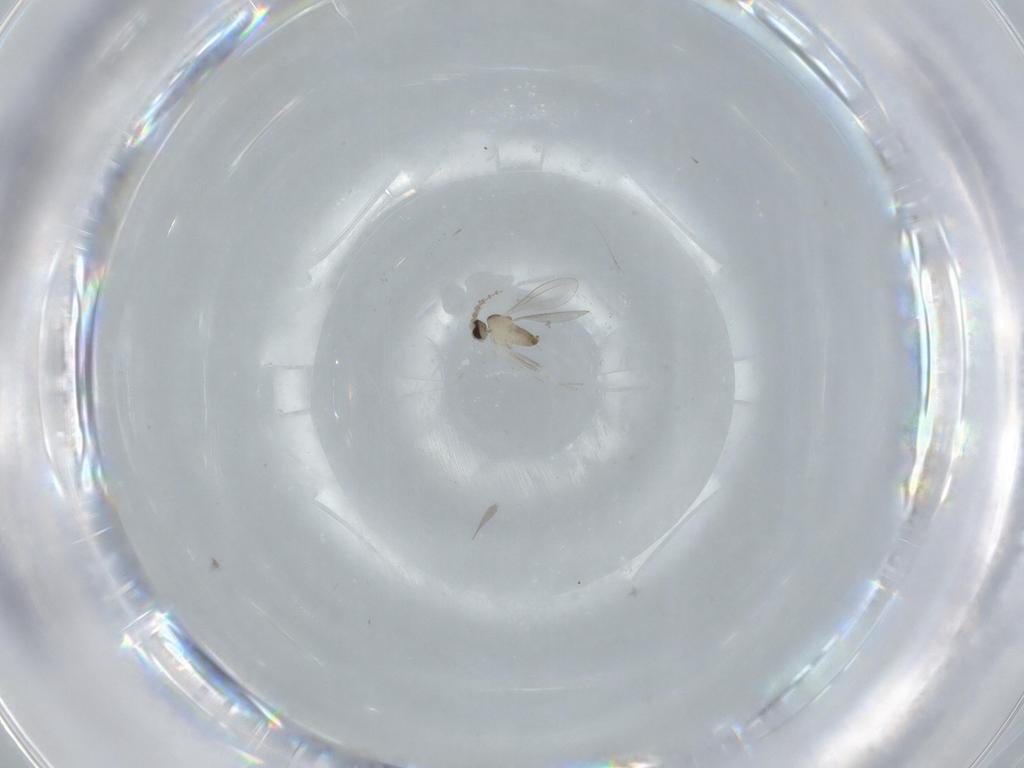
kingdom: Animalia
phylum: Arthropoda
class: Insecta
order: Diptera
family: Cecidomyiidae
